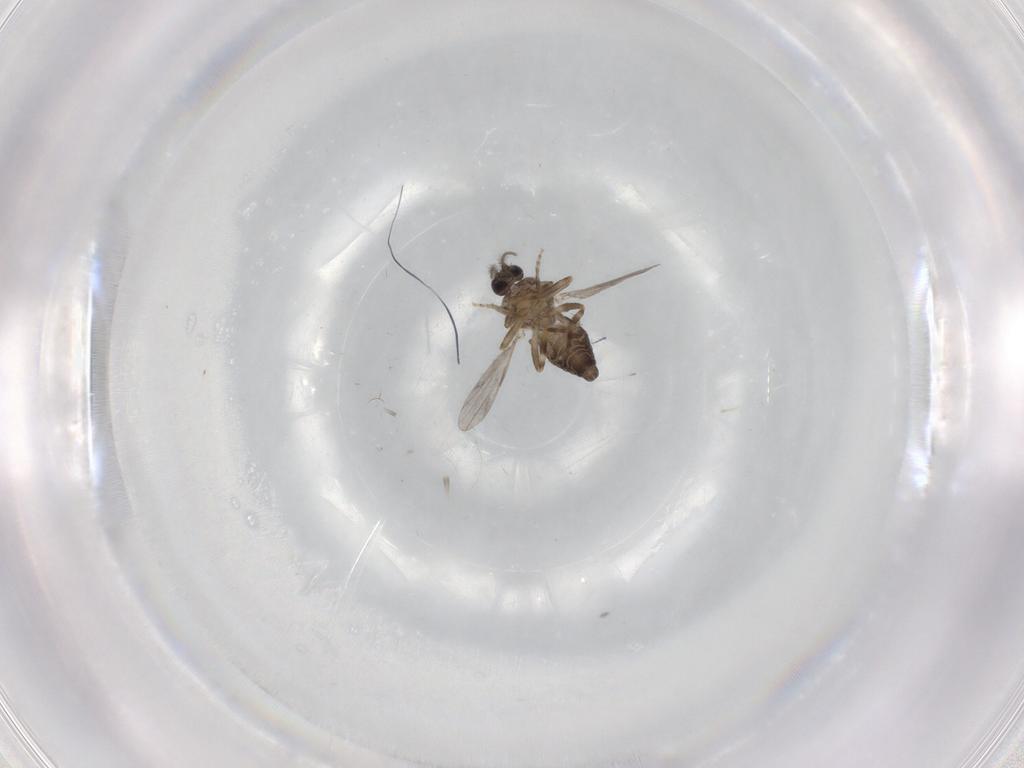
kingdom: Animalia
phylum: Arthropoda
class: Insecta
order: Diptera
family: Ceratopogonidae
